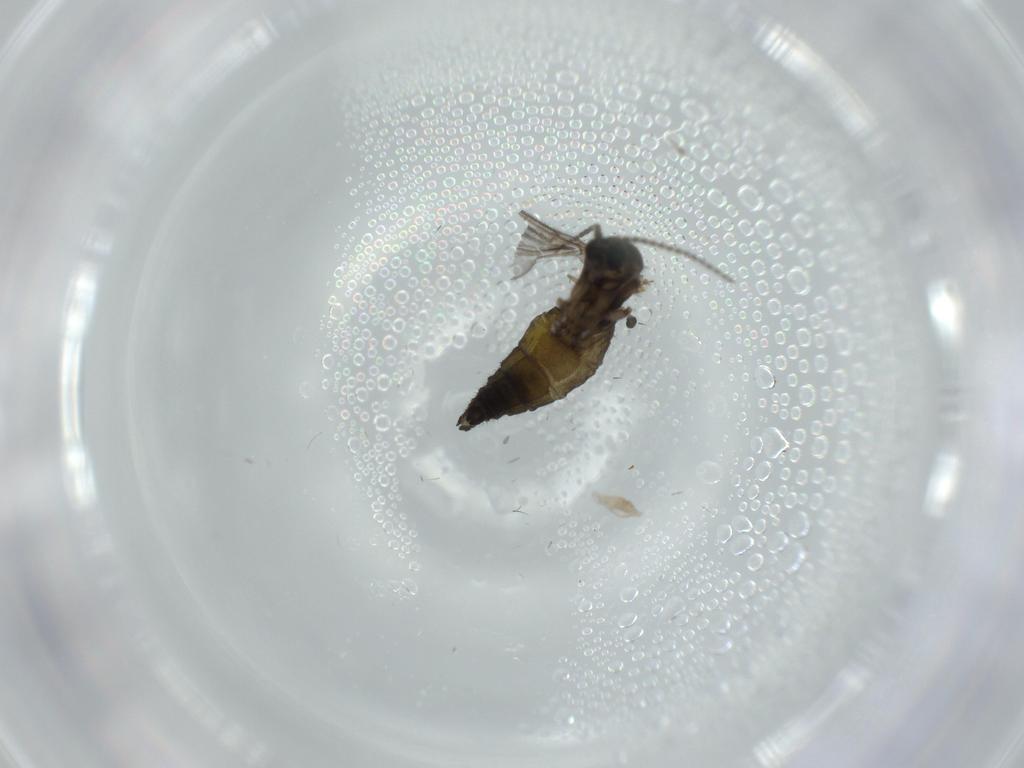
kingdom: Animalia
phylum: Arthropoda
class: Insecta
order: Diptera
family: Sciaridae
